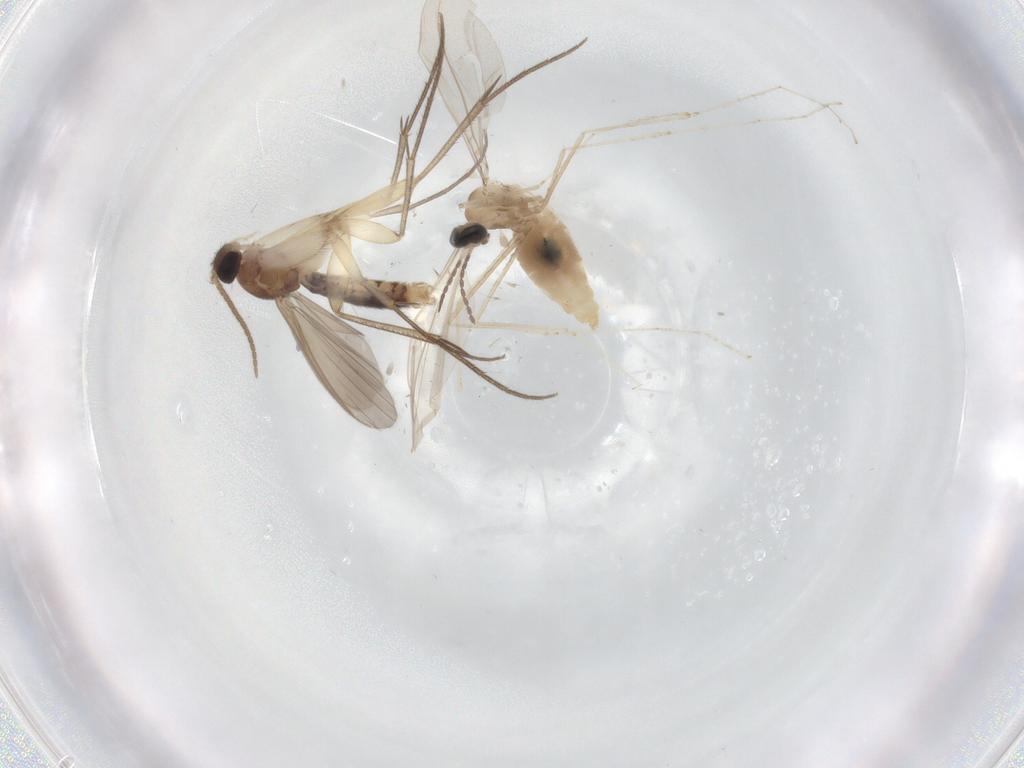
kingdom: Animalia
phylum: Arthropoda
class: Insecta
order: Diptera
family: Mycetophilidae
